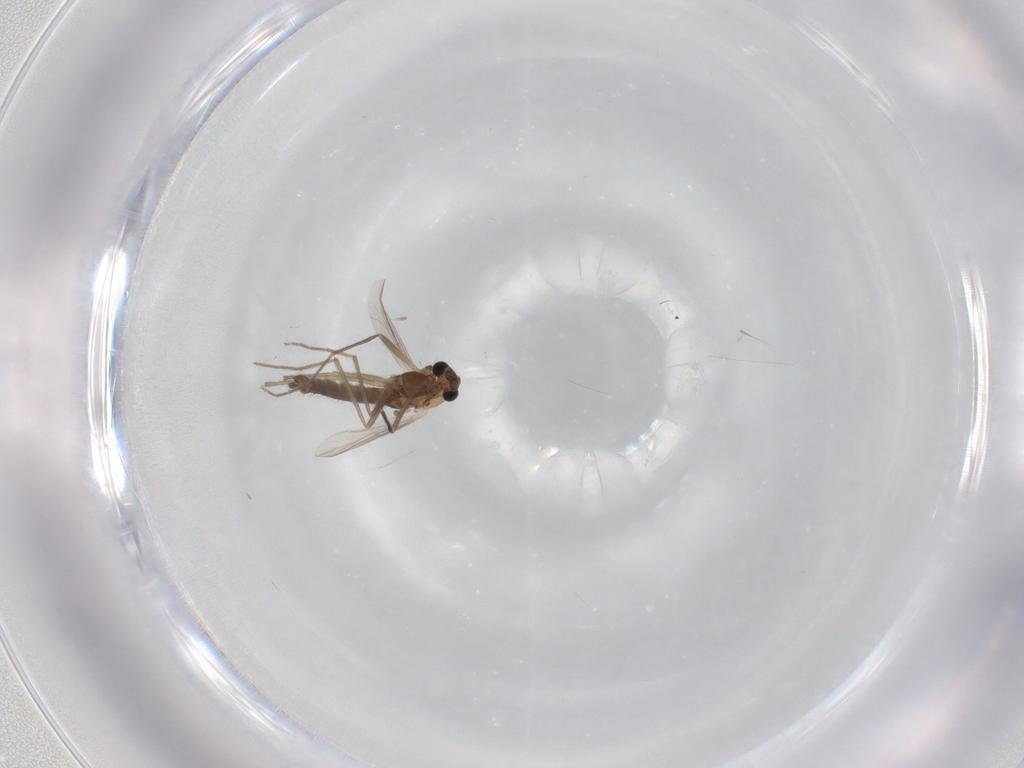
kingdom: Animalia
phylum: Arthropoda
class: Insecta
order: Diptera
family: Chironomidae
